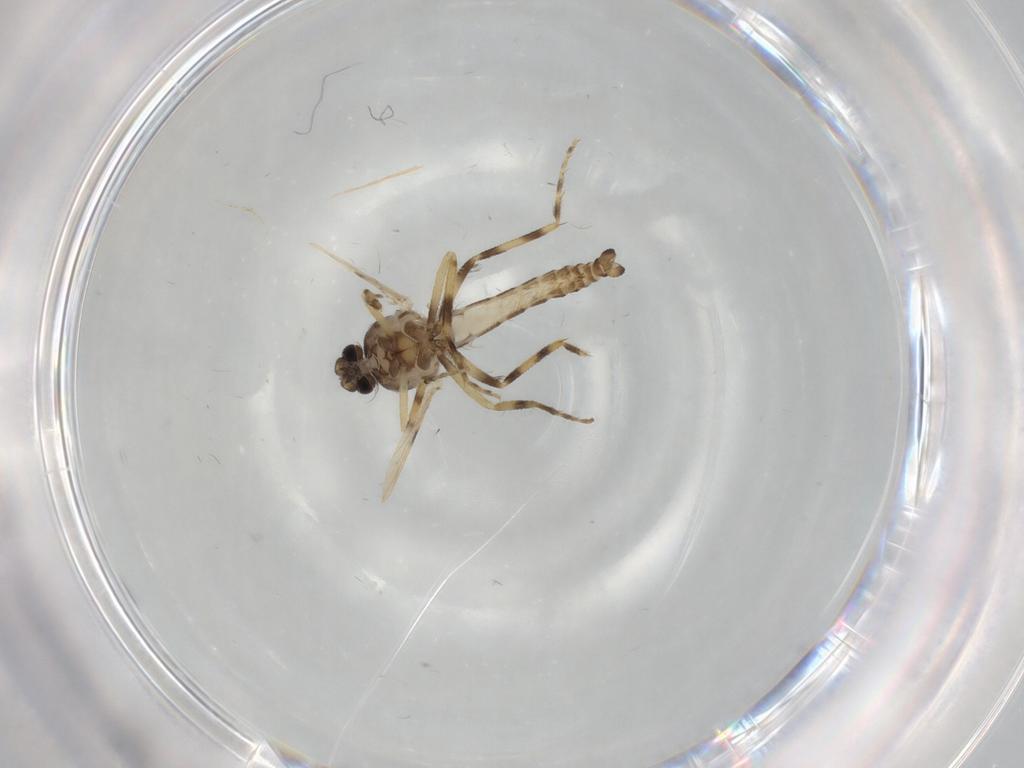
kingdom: Animalia
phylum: Arthropoda
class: Insecta
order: Diptera
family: Ceratopogonidae
